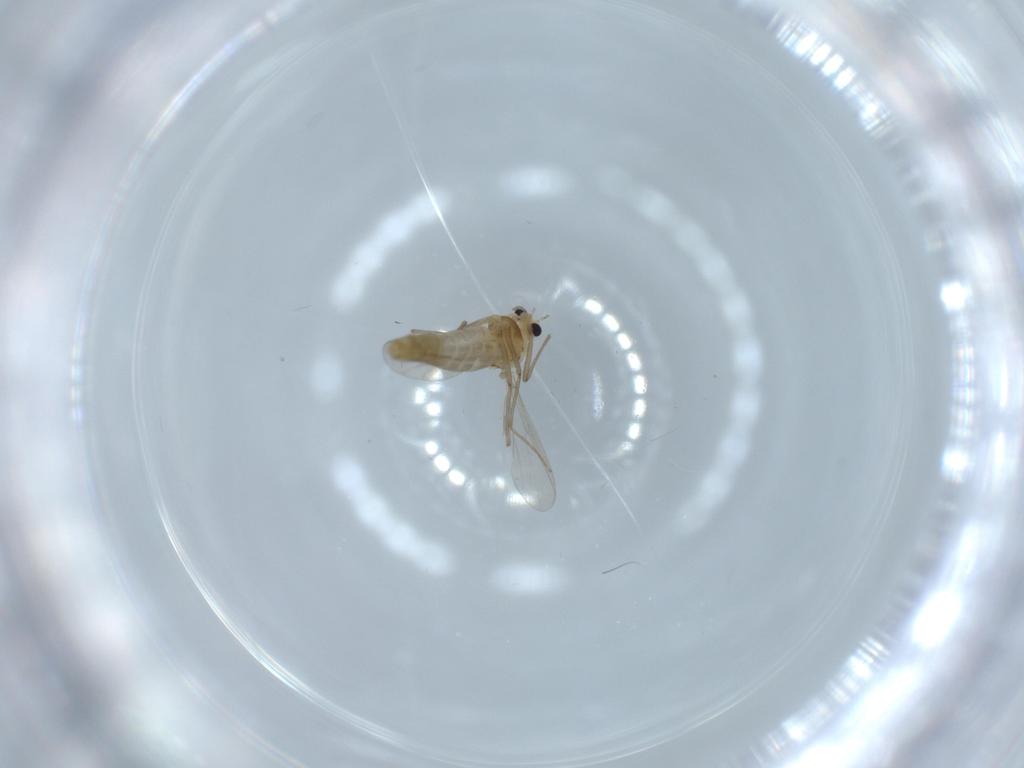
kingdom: Animalia
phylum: Arthropoda
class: Insecta
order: Diptera
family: Chironomidae
